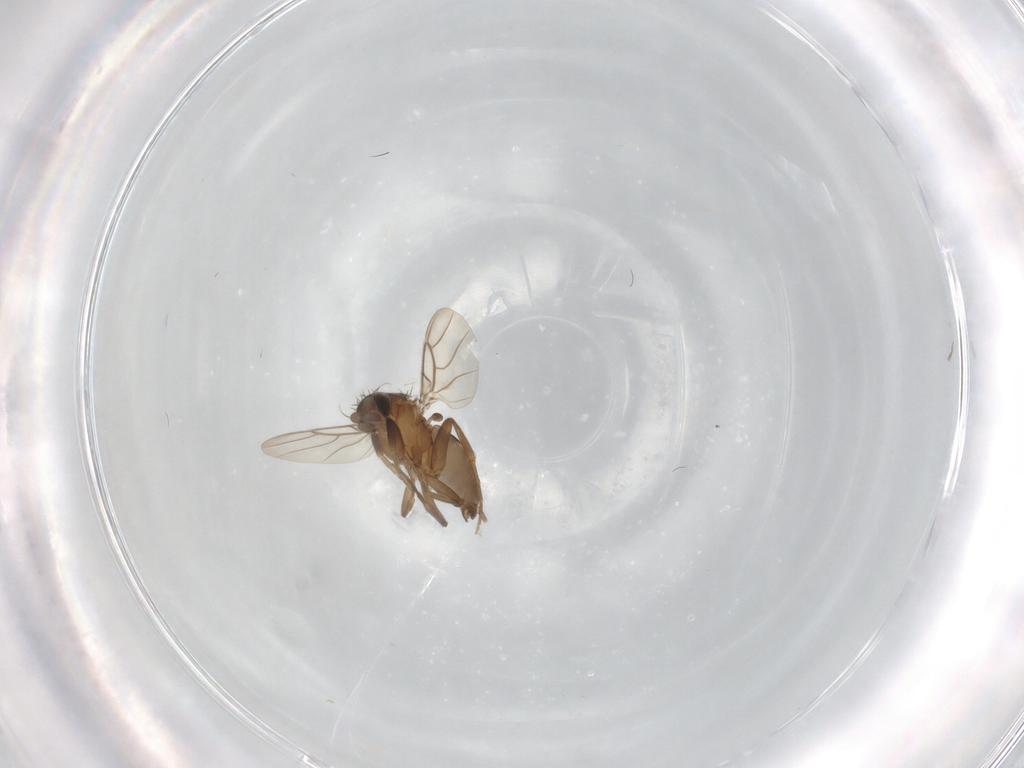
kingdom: Animalia
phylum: Arthropoda
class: Insecta
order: Diptera
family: Phoridae
